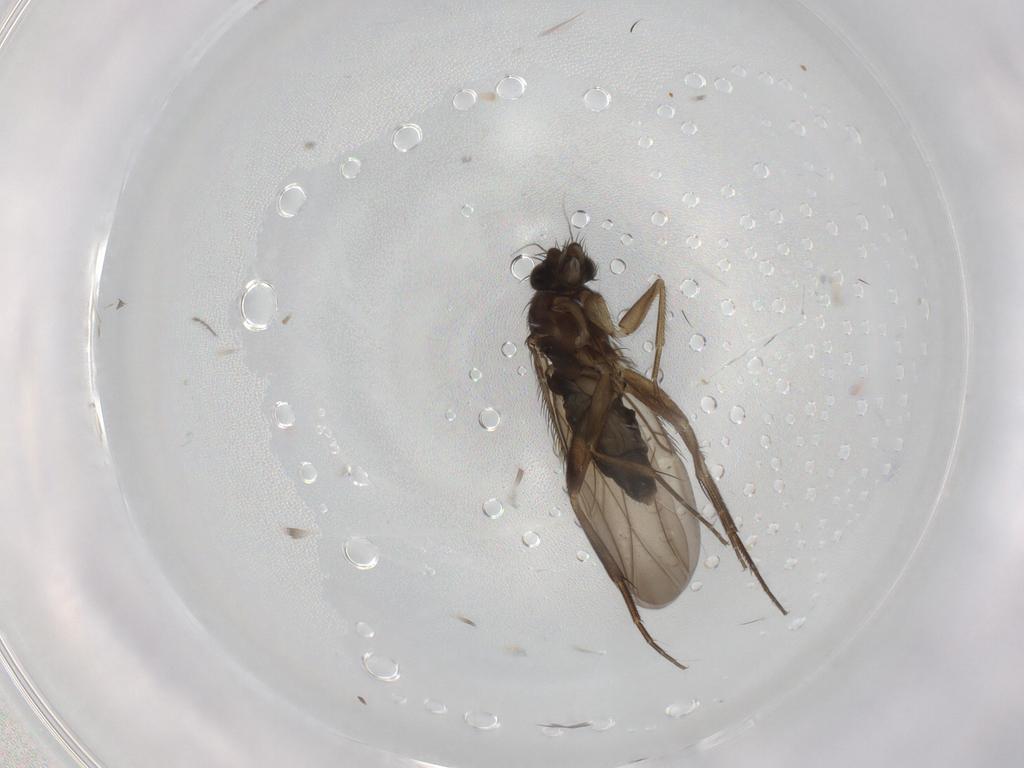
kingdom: Animalia
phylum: Arthropoda
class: Insecta
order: Diptera
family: Phoridae
